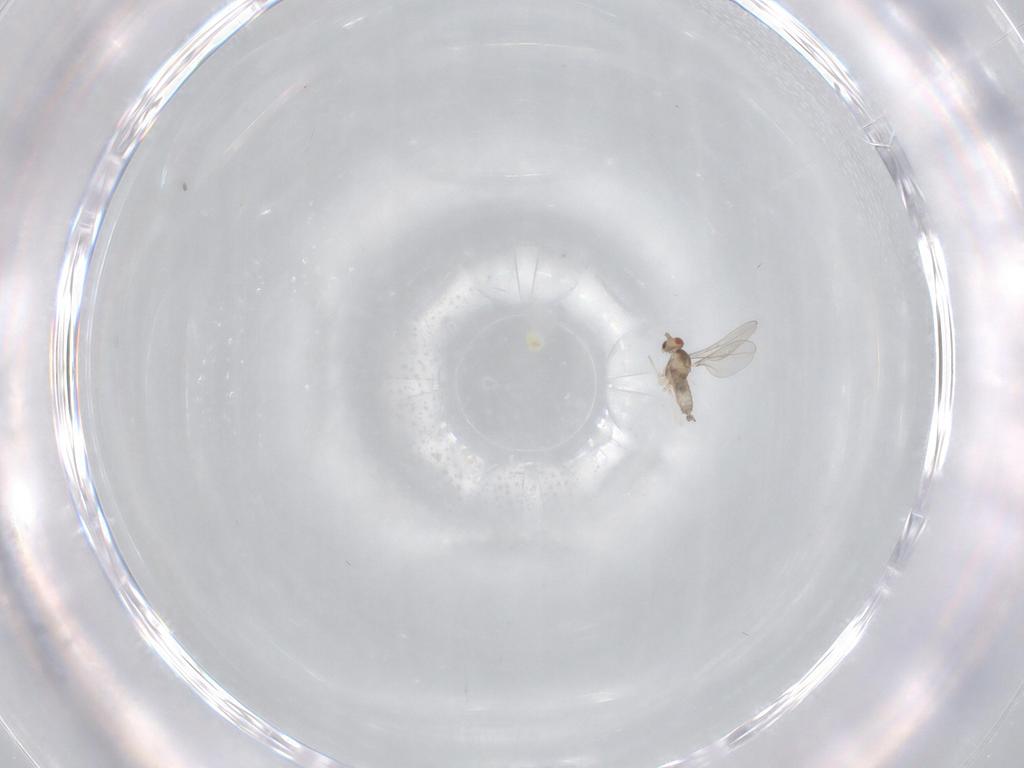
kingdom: Animalia
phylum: Arthropoda
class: Insecta
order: Diptera
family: Cecidomyiidae
